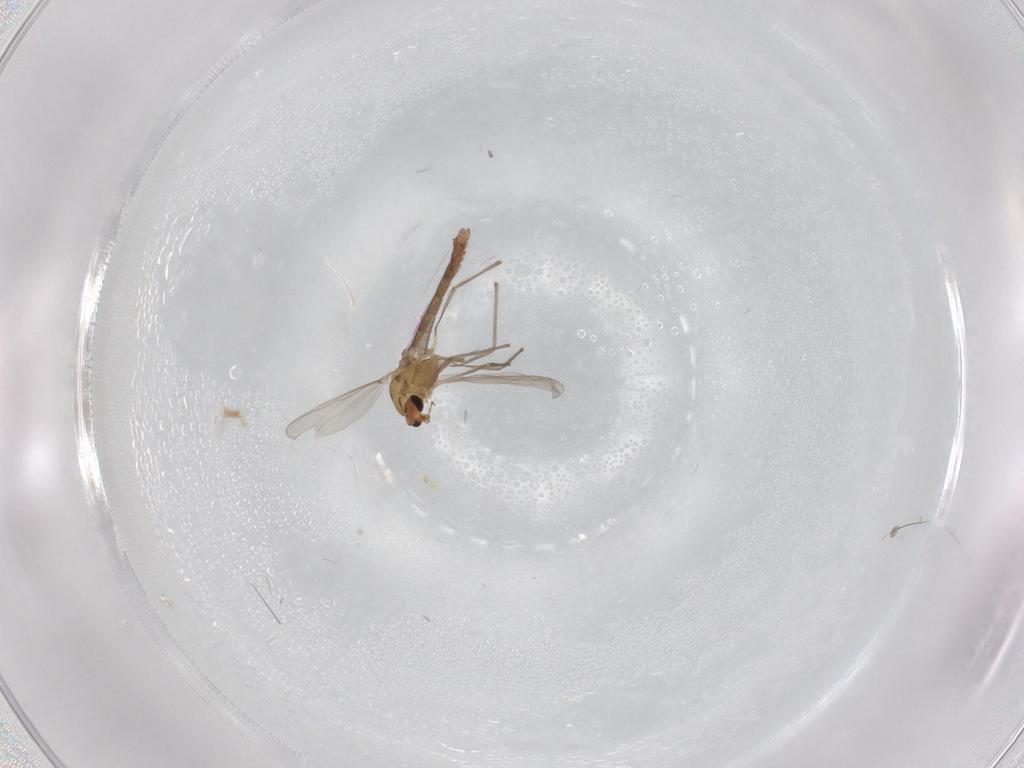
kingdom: Animalia
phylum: Arthropoda
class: Insecta
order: Diptera
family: Chironomidae
